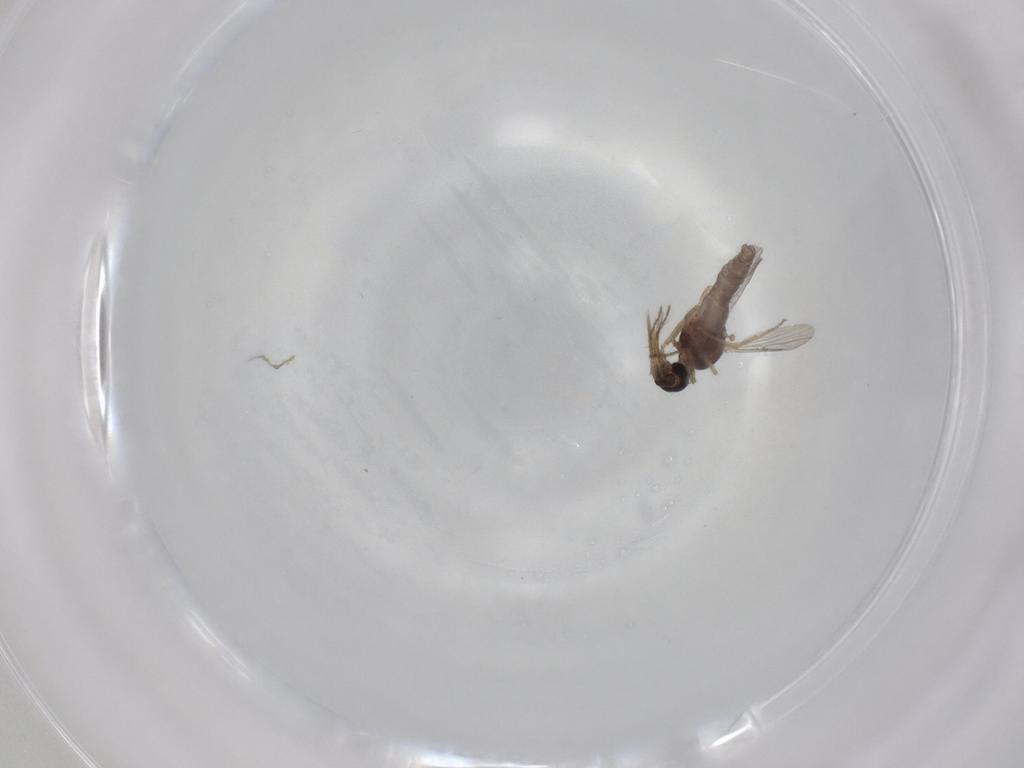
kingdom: Animalia
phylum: Arthropoda
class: Insecta
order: Diptera
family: Ceratopogonidae
